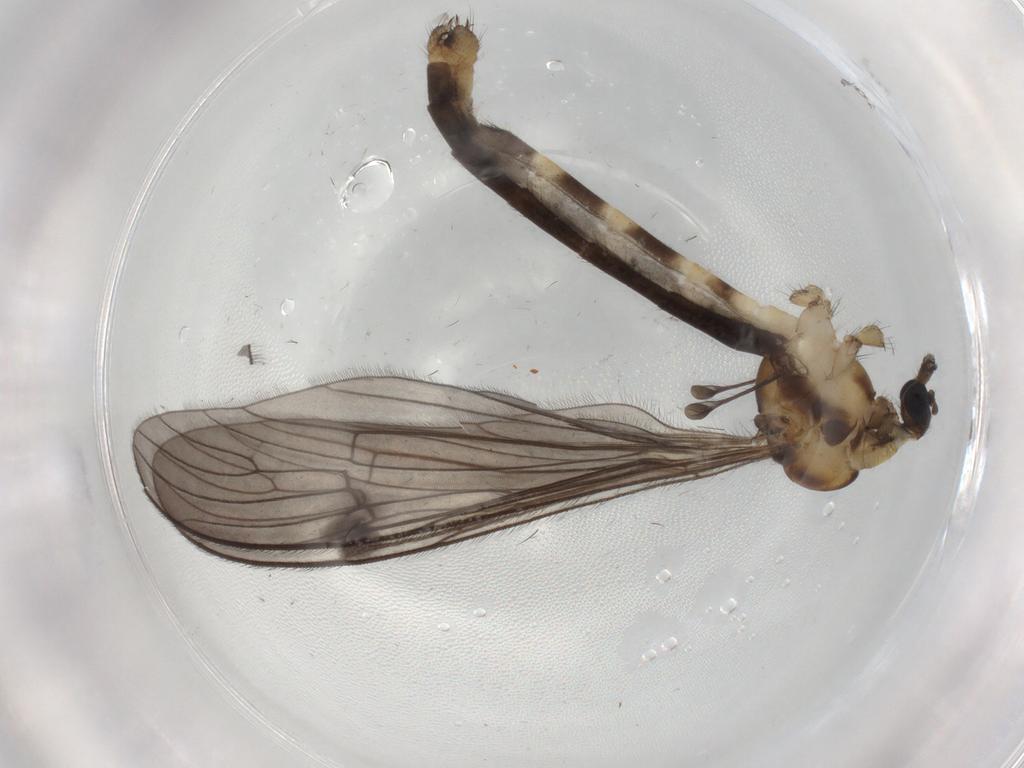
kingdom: Animalia
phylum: Arthropoda
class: Insecta
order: Diptera
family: Limoniidae
